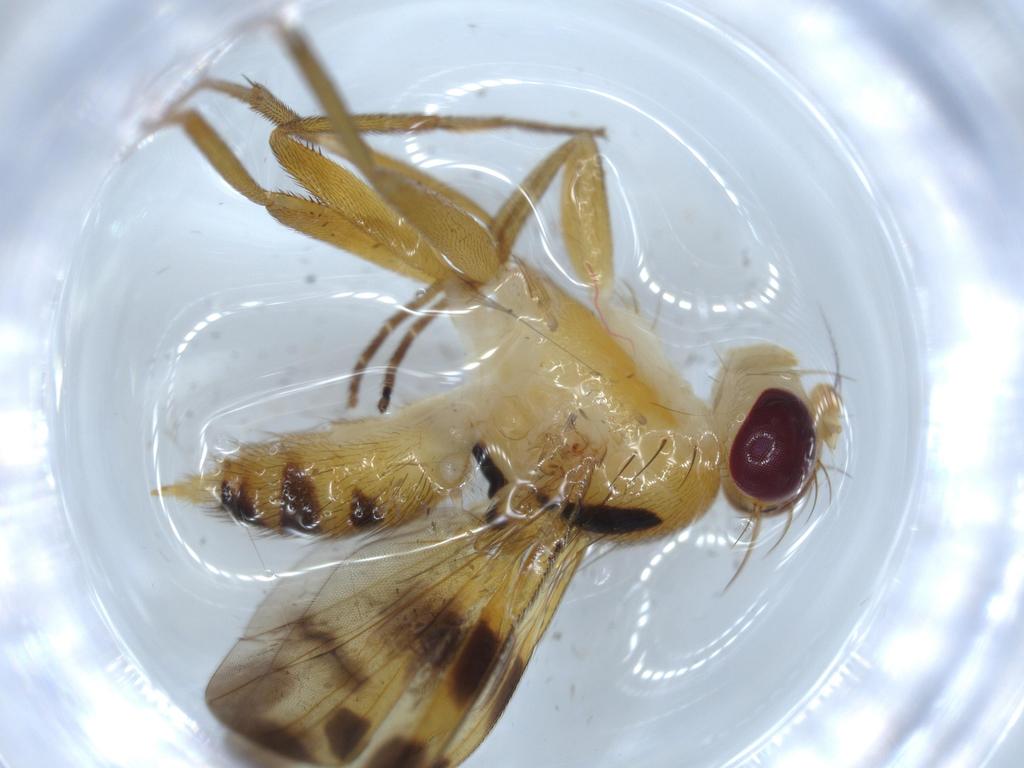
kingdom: Animalia
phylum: Arthropoda
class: Insecta
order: Diptera
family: Clusiidae
